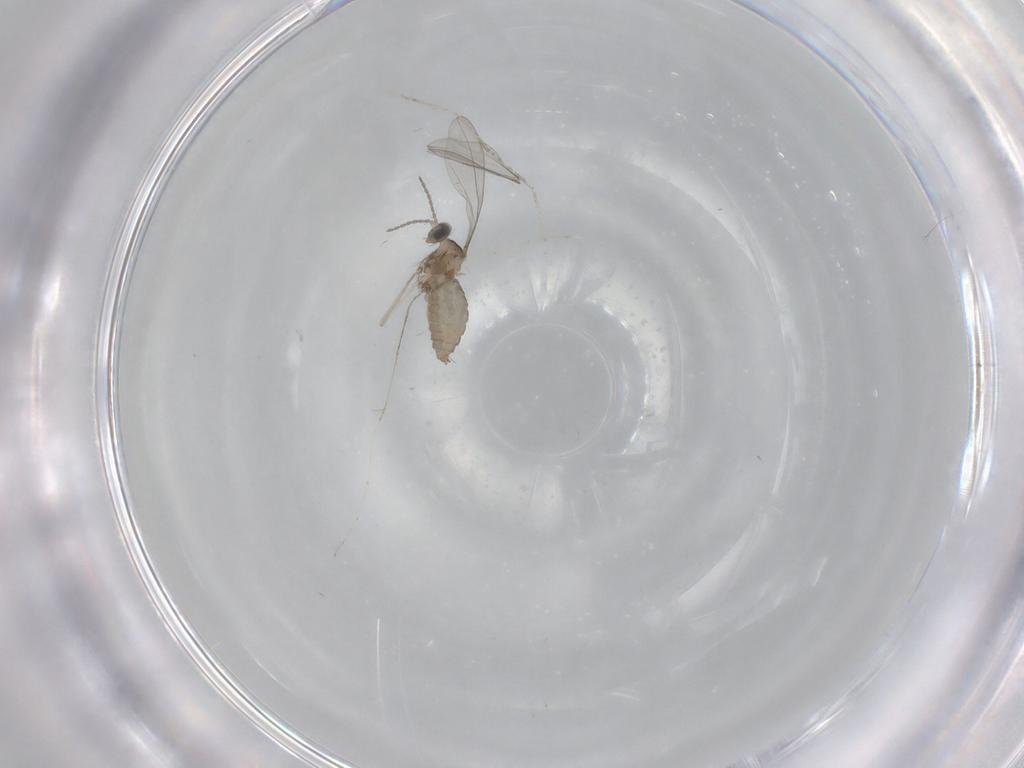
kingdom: Animalia
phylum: Arthropoda
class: Insecta
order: Diptera
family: Cecidomyiidae
